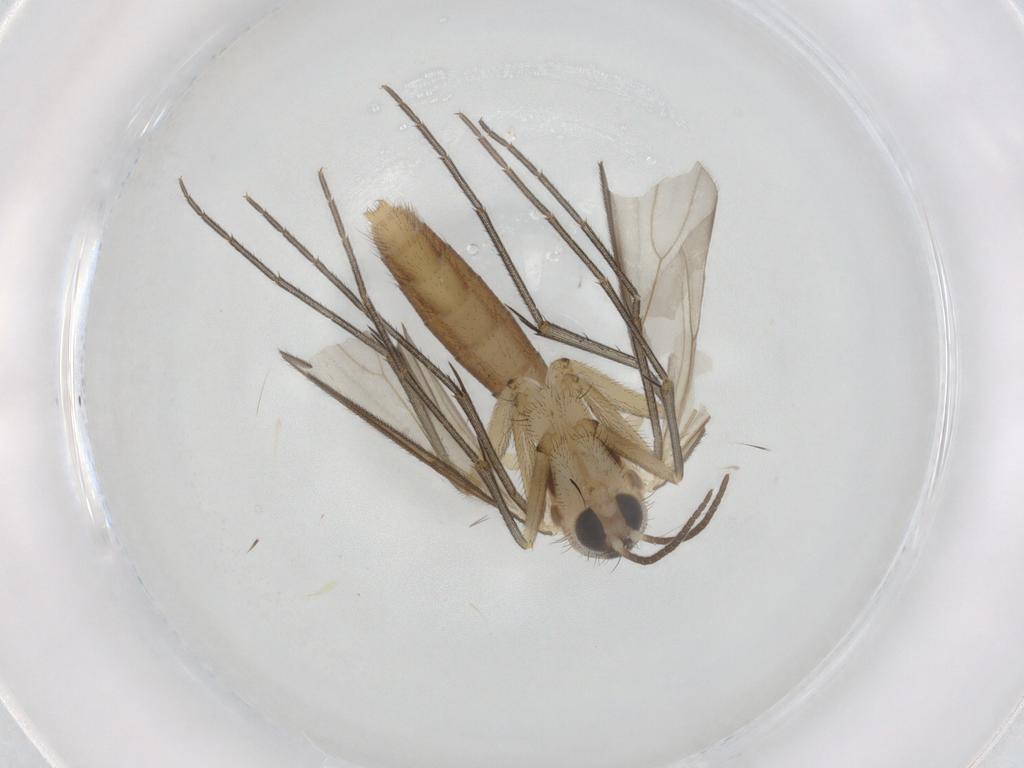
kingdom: Animalia
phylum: Arthropoda
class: Insecta
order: Diptera
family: Mycetophilidae
